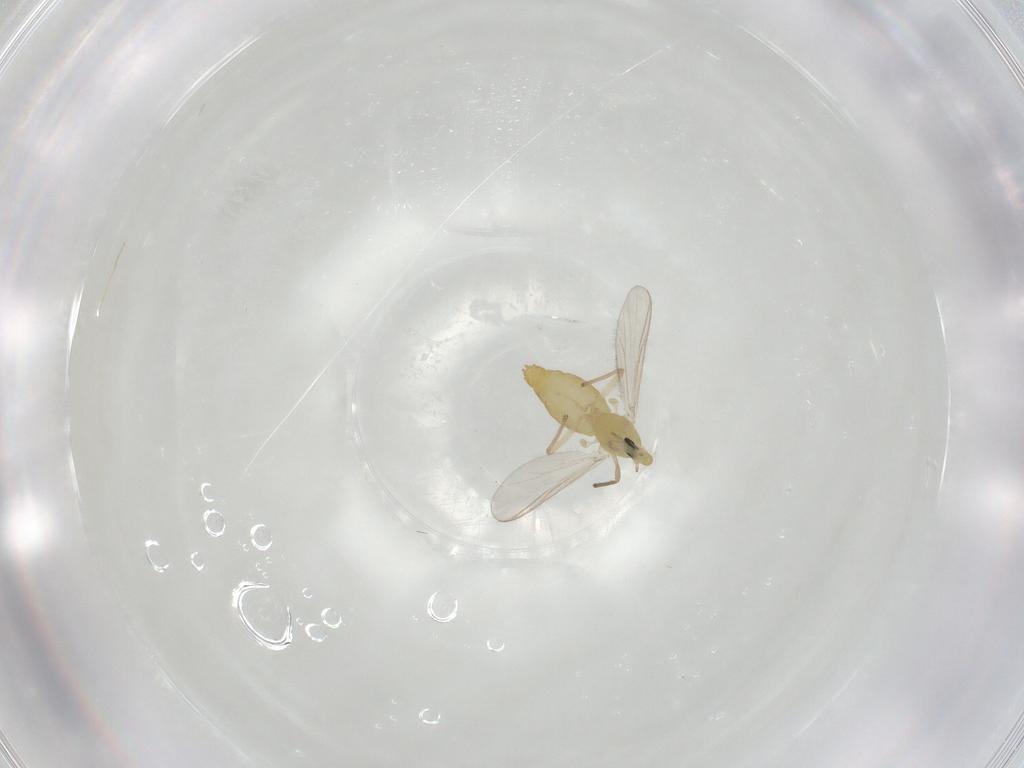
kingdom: Animalia
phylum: Arthropoda
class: Insecta
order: Diptera
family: Chironomidae
